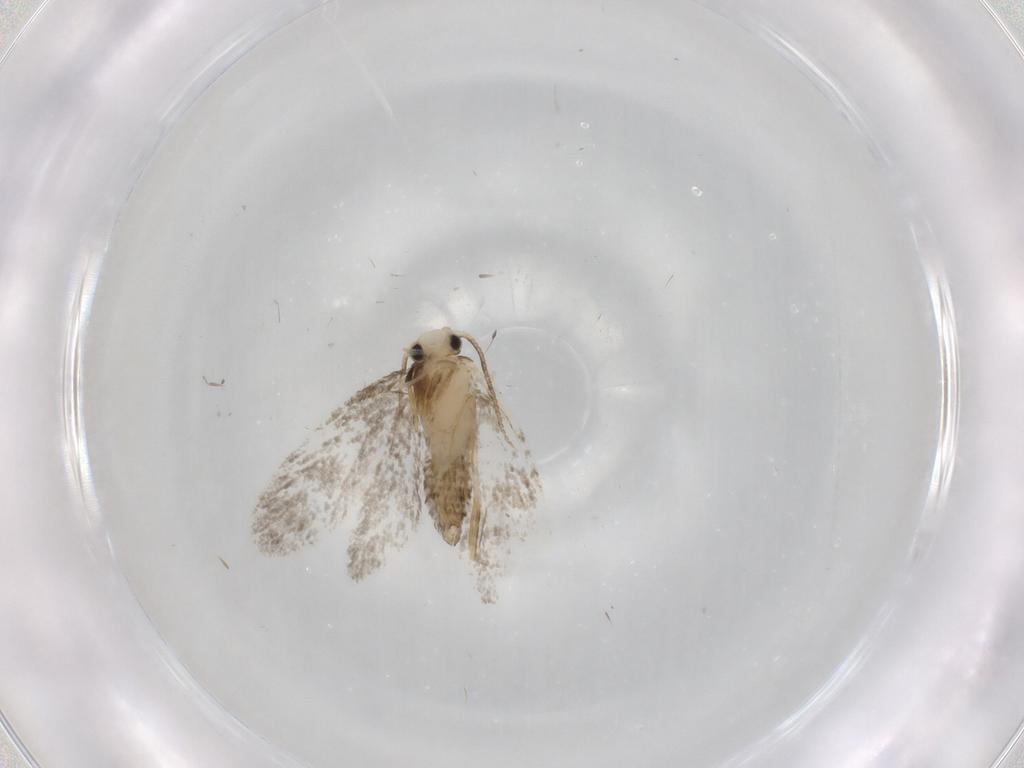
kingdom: Animalia
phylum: Arthropoda
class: Insecta
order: Lepidoptera
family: Psychidae
